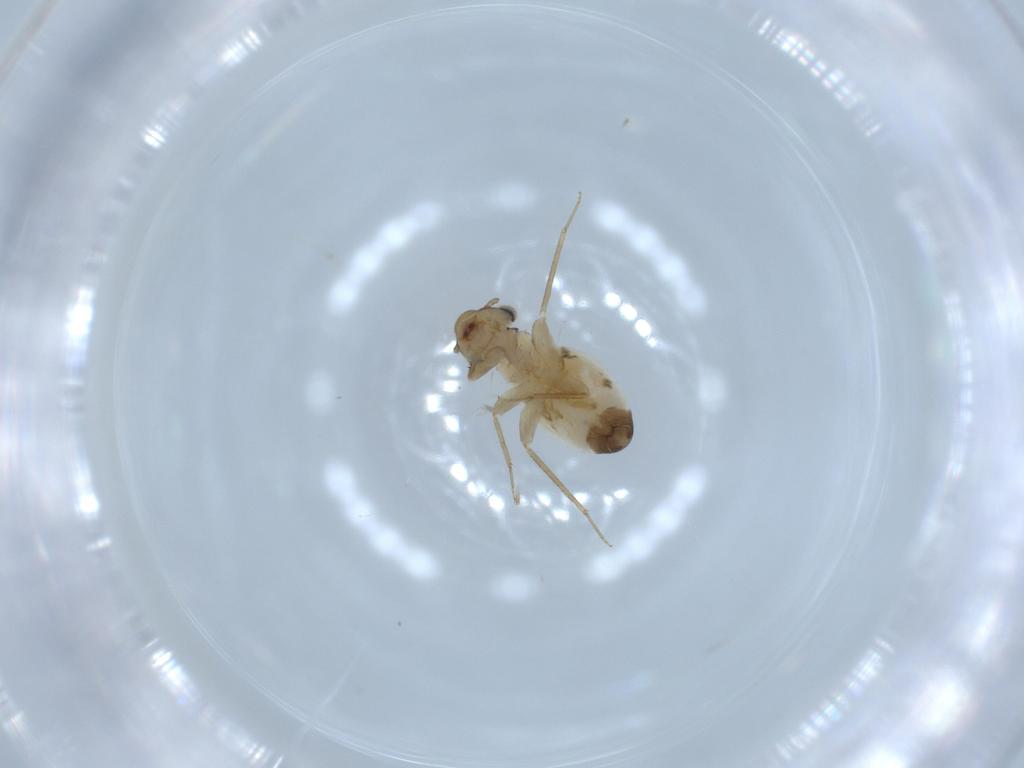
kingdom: Animalia
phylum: Arthropoda
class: Insecta
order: Psocodea
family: Lepidopsocidae
